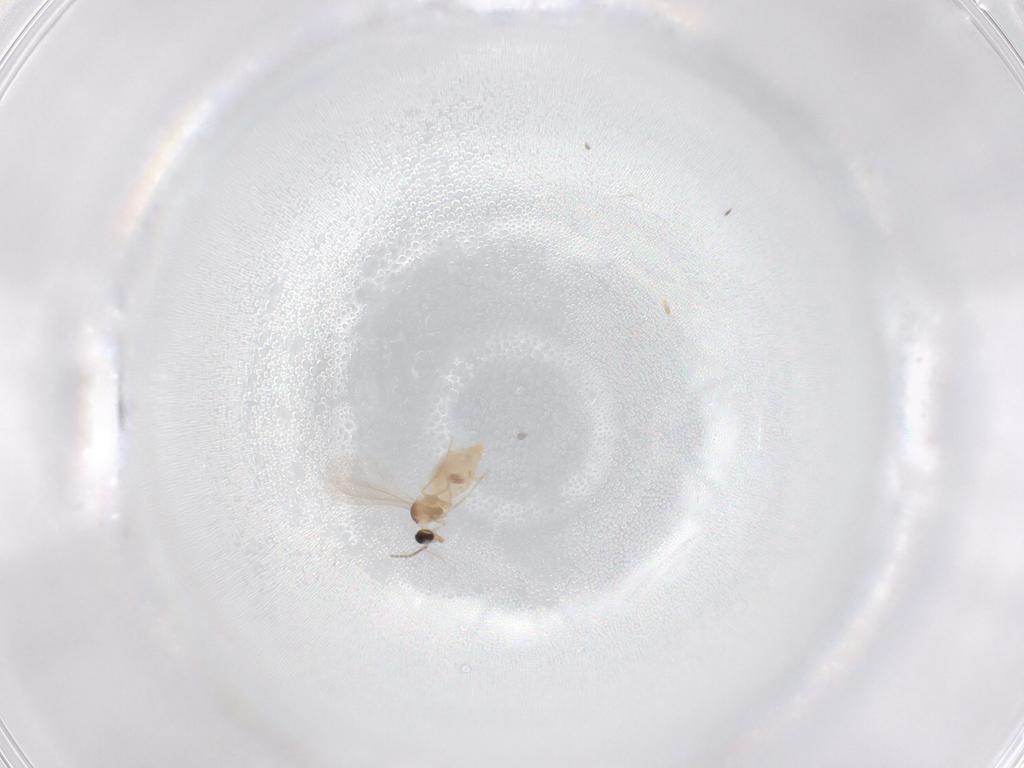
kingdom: Animalia
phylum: Arthropoda
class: Insecta
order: Diptera
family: Cecidomyiidae
